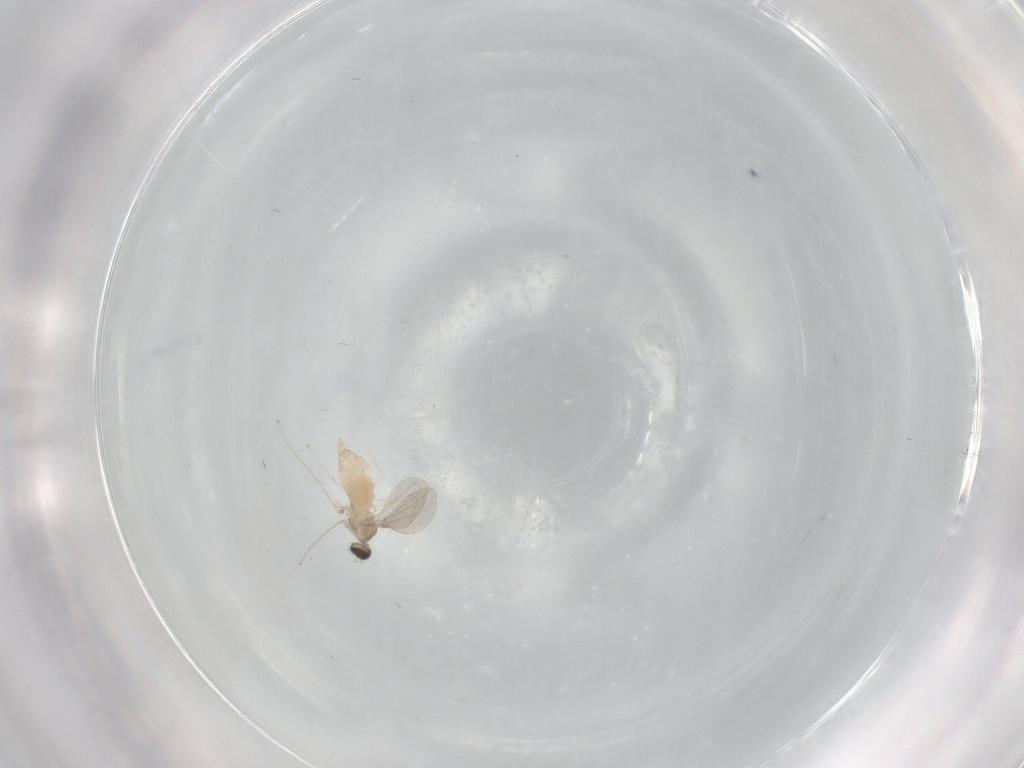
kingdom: Animalia
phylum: Arthropoda
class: Insecta
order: Diptera
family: Cecidomyiidae
